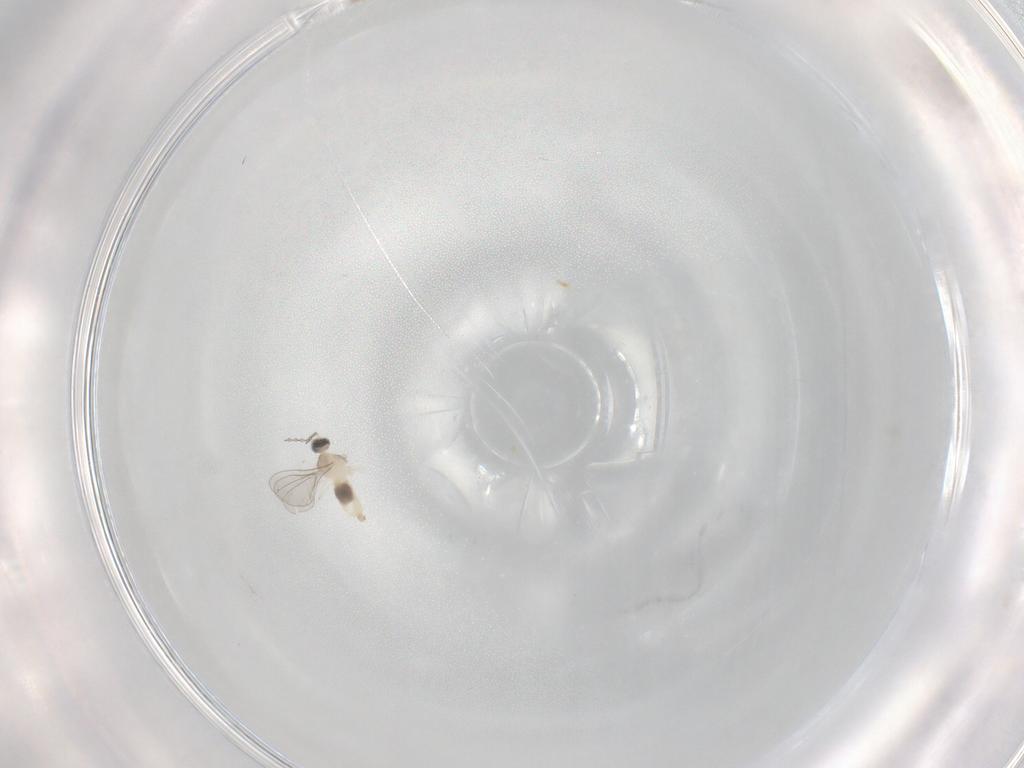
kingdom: Animalia
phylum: Arthropoda
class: Insecta
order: Diptera
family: Cecidomyiidae
